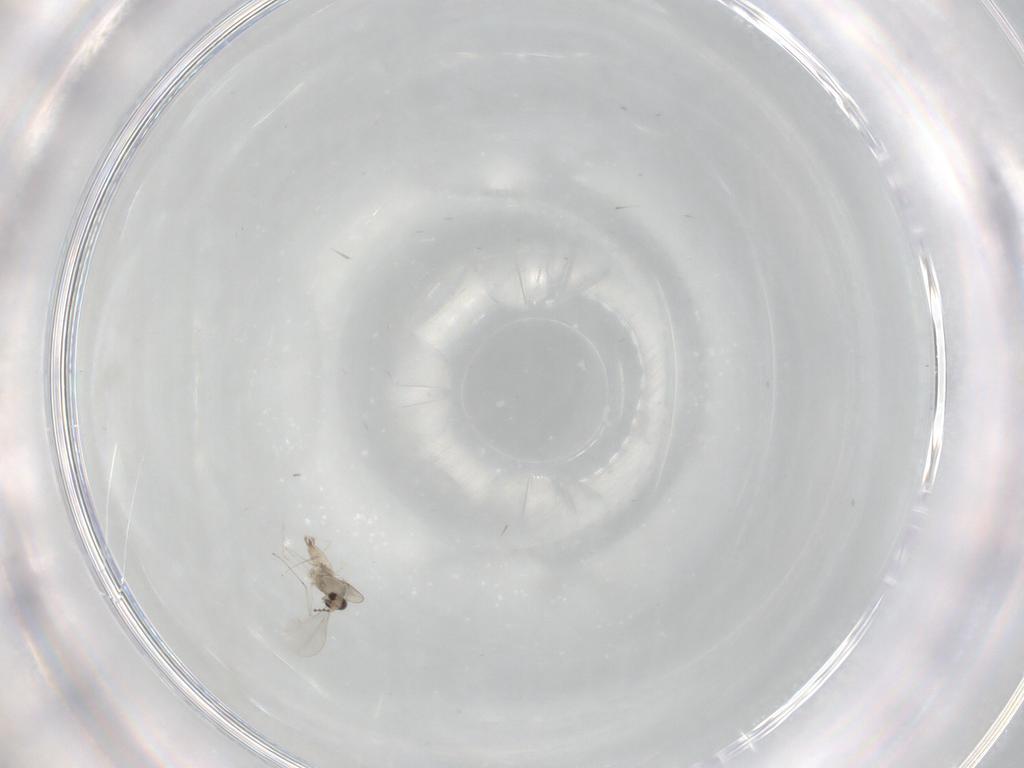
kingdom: Animalia
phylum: Arthropoda
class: Insecta
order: Diptera
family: Cecidomyiidae
